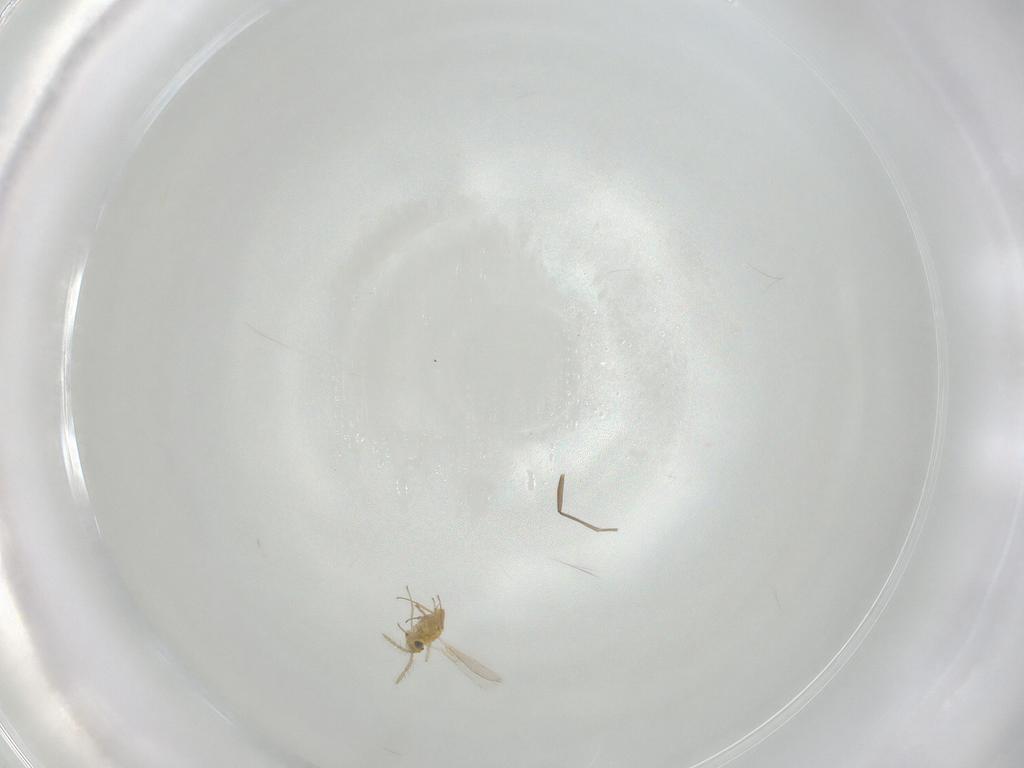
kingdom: Animalia
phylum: Arthropoda
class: Insecta
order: Hymenoptera
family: Aphelinidae
